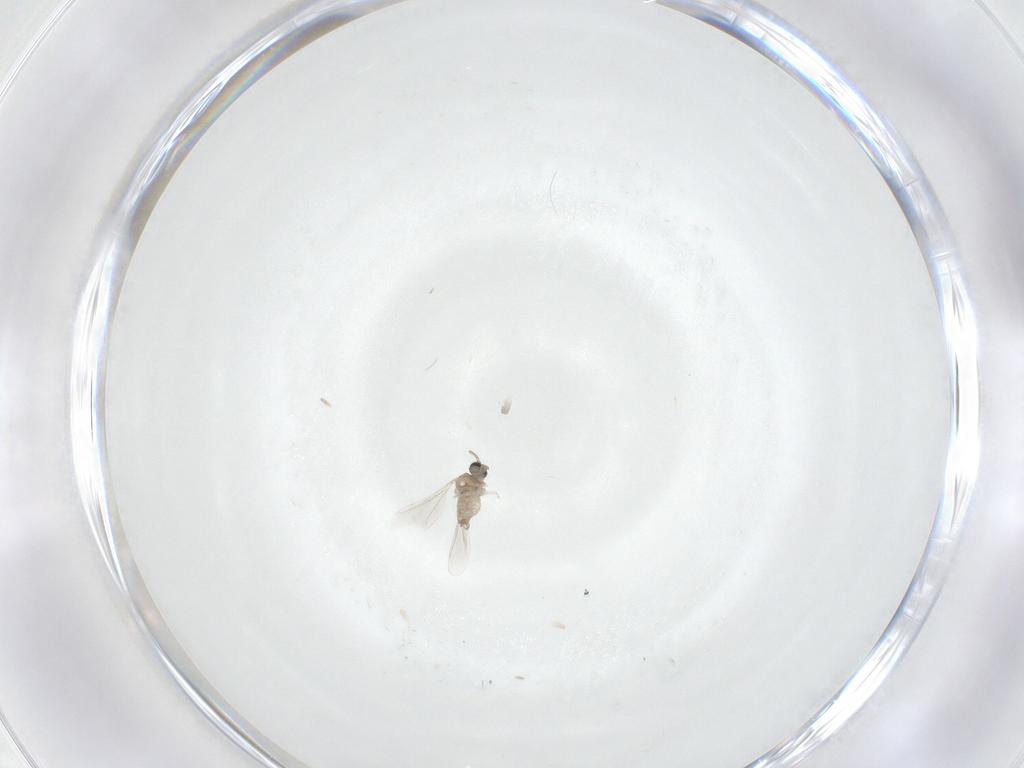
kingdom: Animalia
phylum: Arthropoda
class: Insecta
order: Diptera
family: Cecidomyiidae
